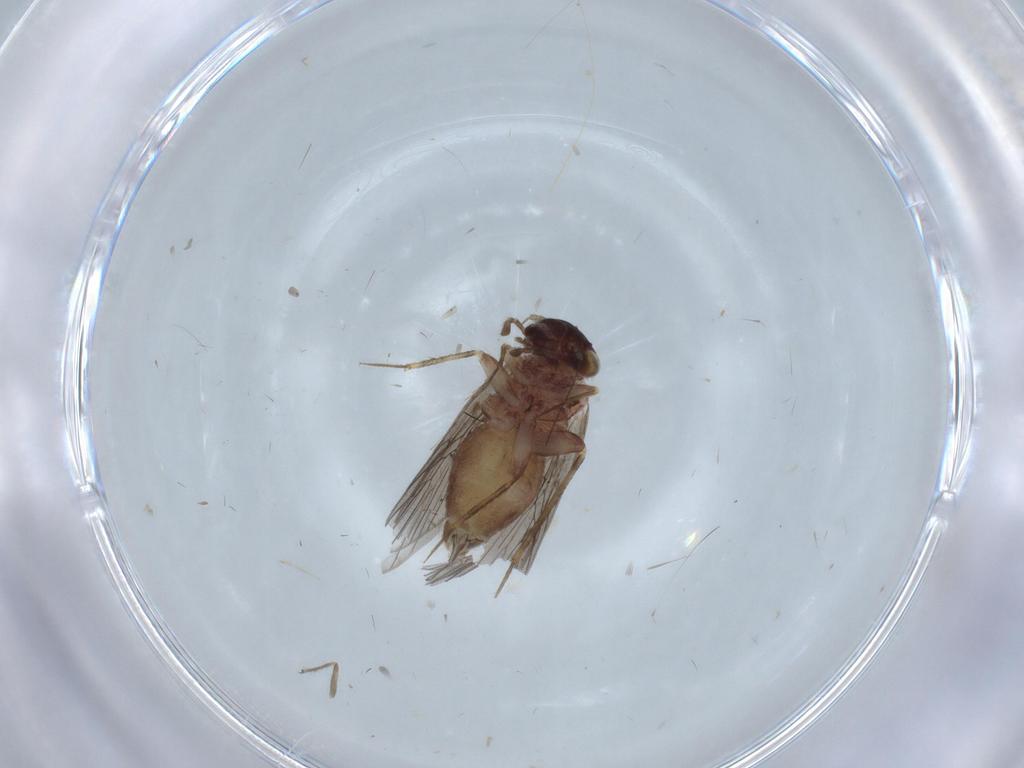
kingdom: Animalia
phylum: Arthropoda
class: Insecta
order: Psocodea
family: Lepidopsocidae
